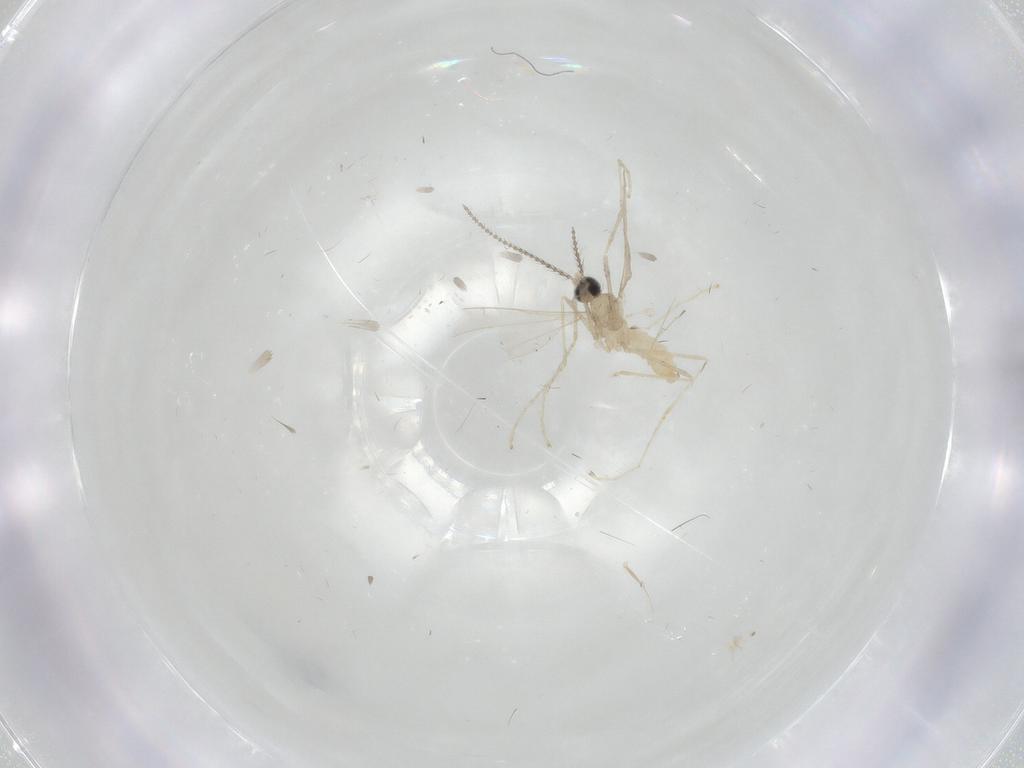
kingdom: Animalia
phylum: Arthropoda
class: Insecta
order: Diptera
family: Cecidomyiidae
